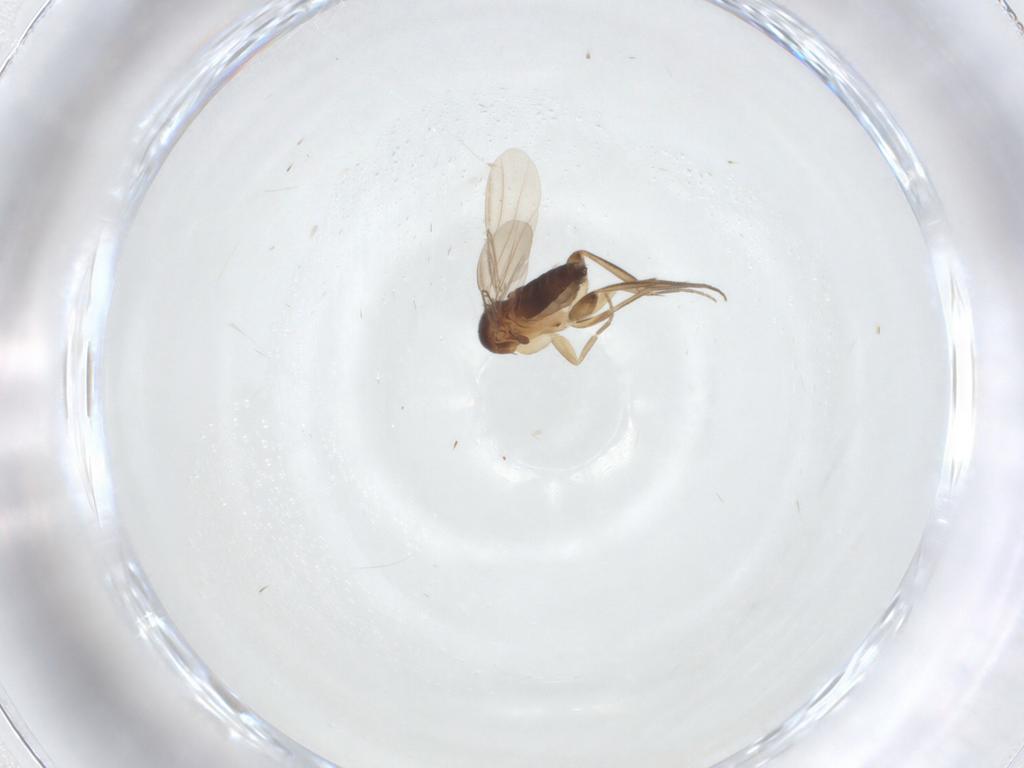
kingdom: Animalia
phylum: Arthropoda
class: Insecta
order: Diptera
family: Phoridae
